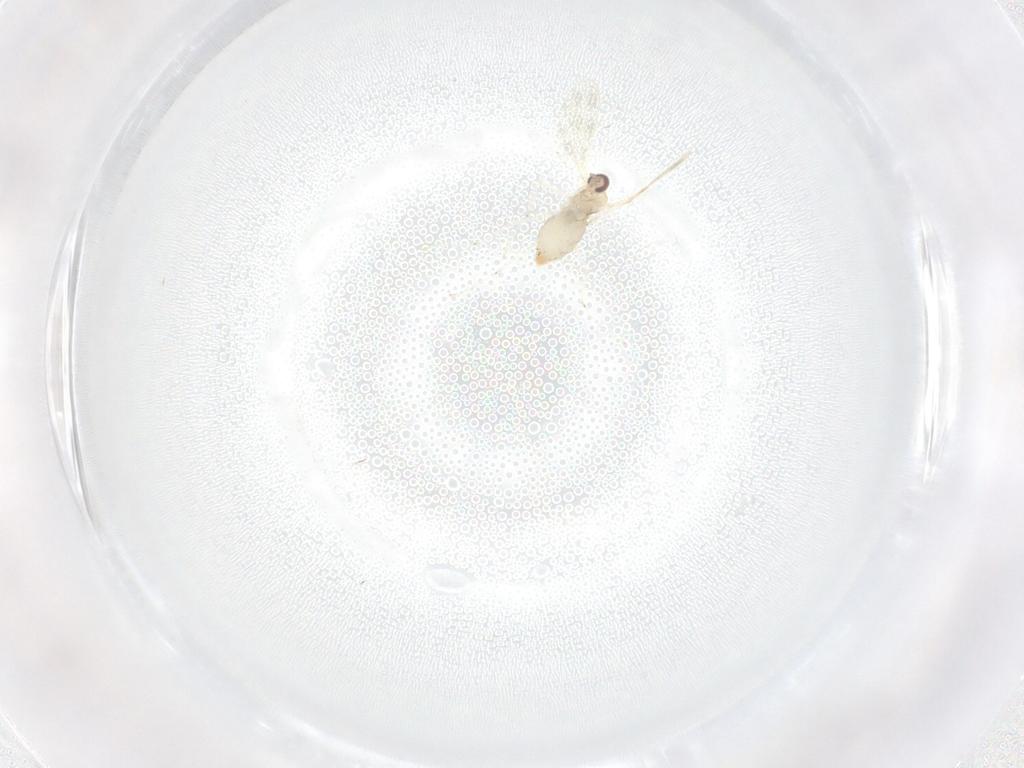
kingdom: Animalia
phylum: Arthropoda
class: Insecta
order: Diptera
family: Cecidomyiidae
